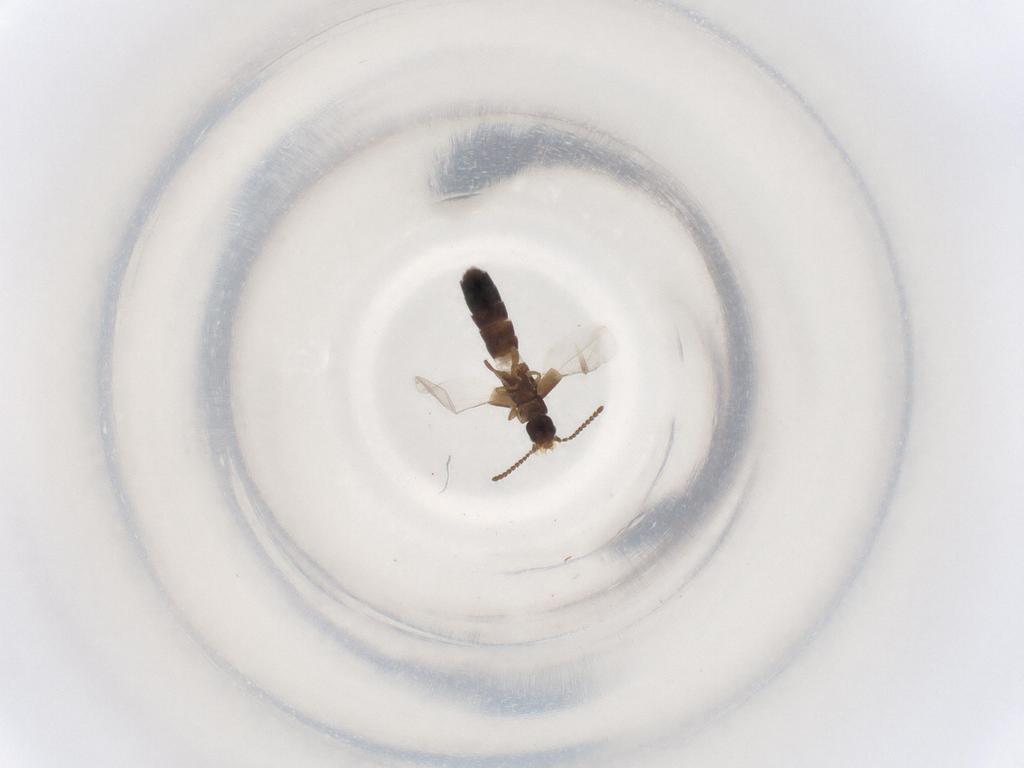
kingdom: Animalia
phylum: Arthropoda
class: Insecta
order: Coleoptera
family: Staphylinidae
